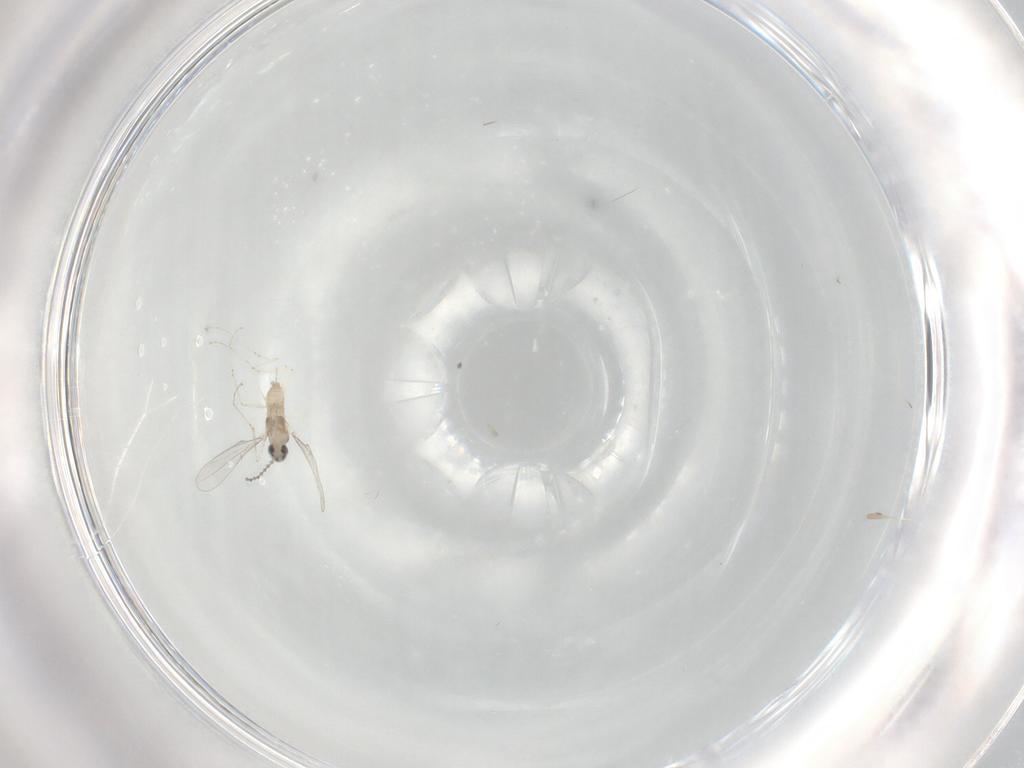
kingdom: Animalia
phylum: Arthropoda
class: Insecta
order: Diptera
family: Cecidomyiidae
